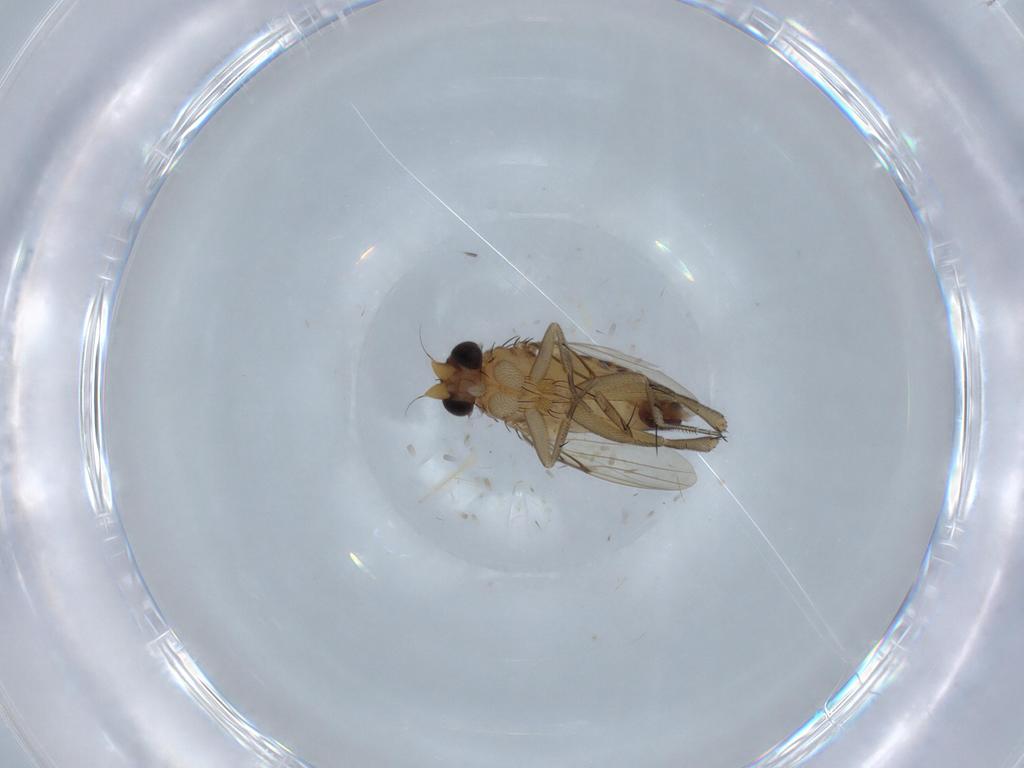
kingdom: Animalia
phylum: Arthropoda
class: Insecta
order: Diptera
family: Phoridae
